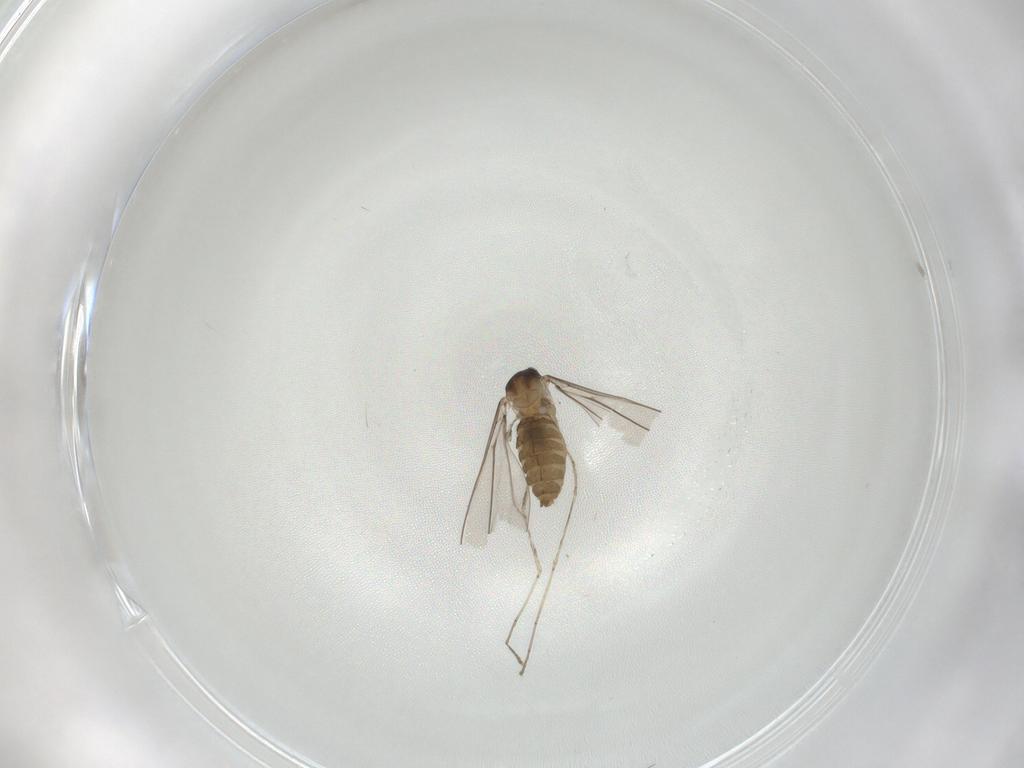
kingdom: Animalia
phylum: Arthropoda
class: Insecta
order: Diptera
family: Cecidomyiidae
